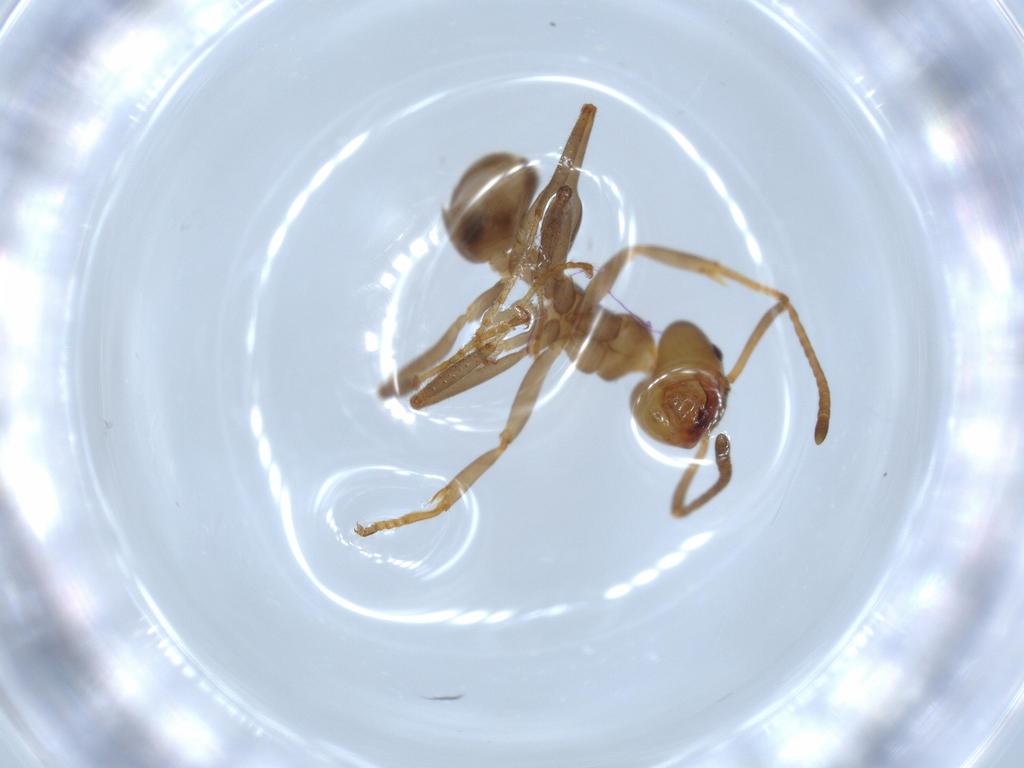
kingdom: Animalia
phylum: Arthropoda
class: Insecta
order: Hymenoptera
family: Formicidae
